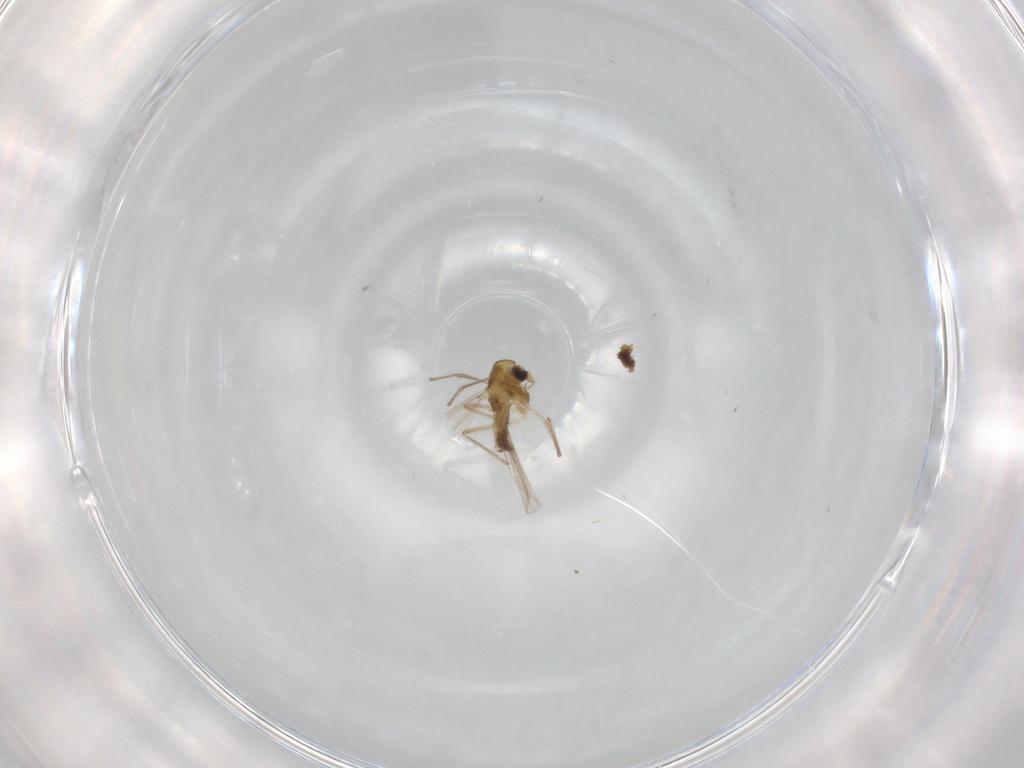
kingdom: Animalia
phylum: Arthropoda
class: Insecta
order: Diptera
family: Chironomidae
